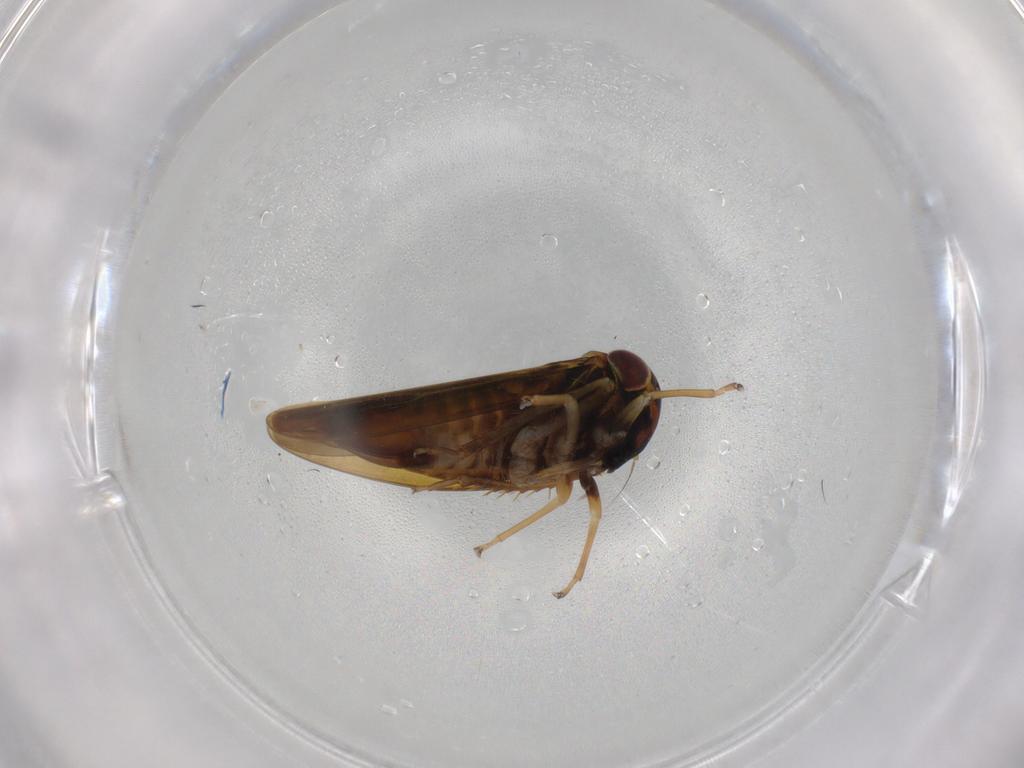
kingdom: Animalia
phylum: Arthropoda
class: Insecta
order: Hemiptera
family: Cicadellidae
